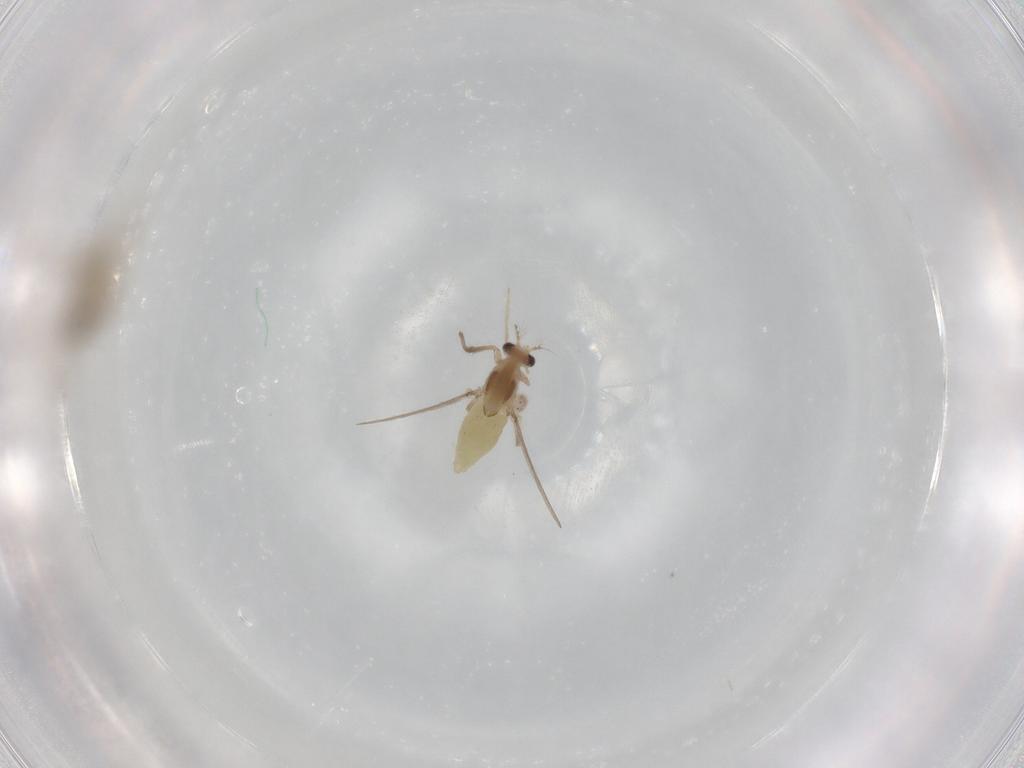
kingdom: Animalia
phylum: Arthropoda
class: Insecta
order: Diptera
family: Cecidomyiidae
